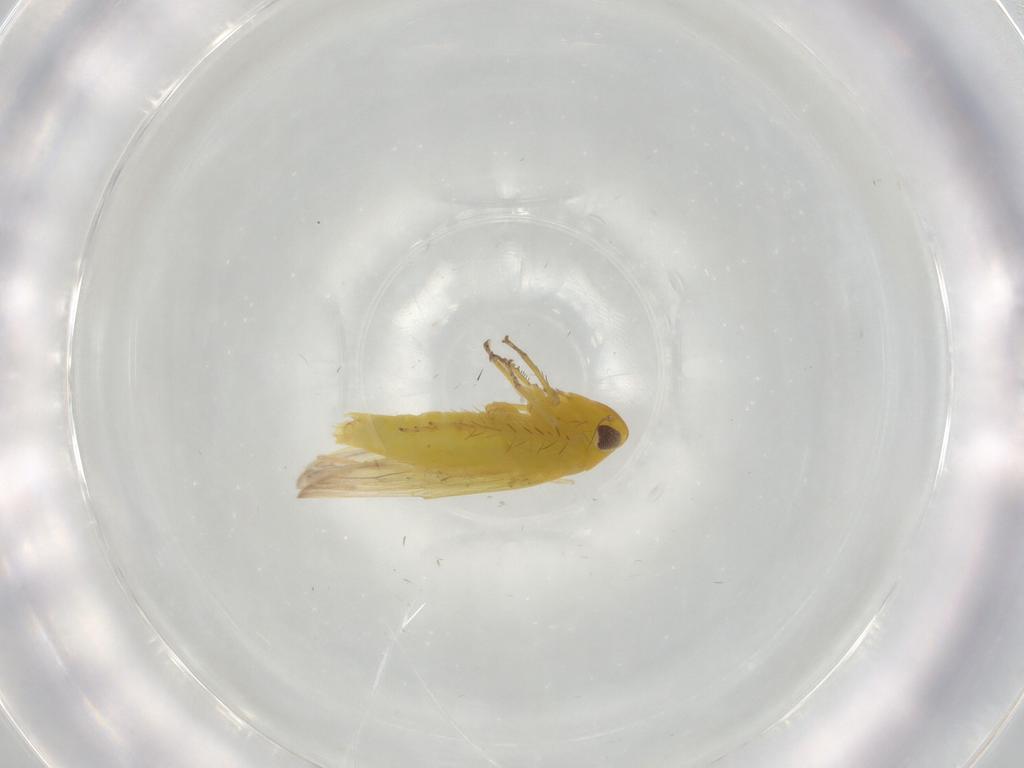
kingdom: Animalia
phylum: Arthropoda
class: Insecta
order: Hemiptera
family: Cicadellidae
